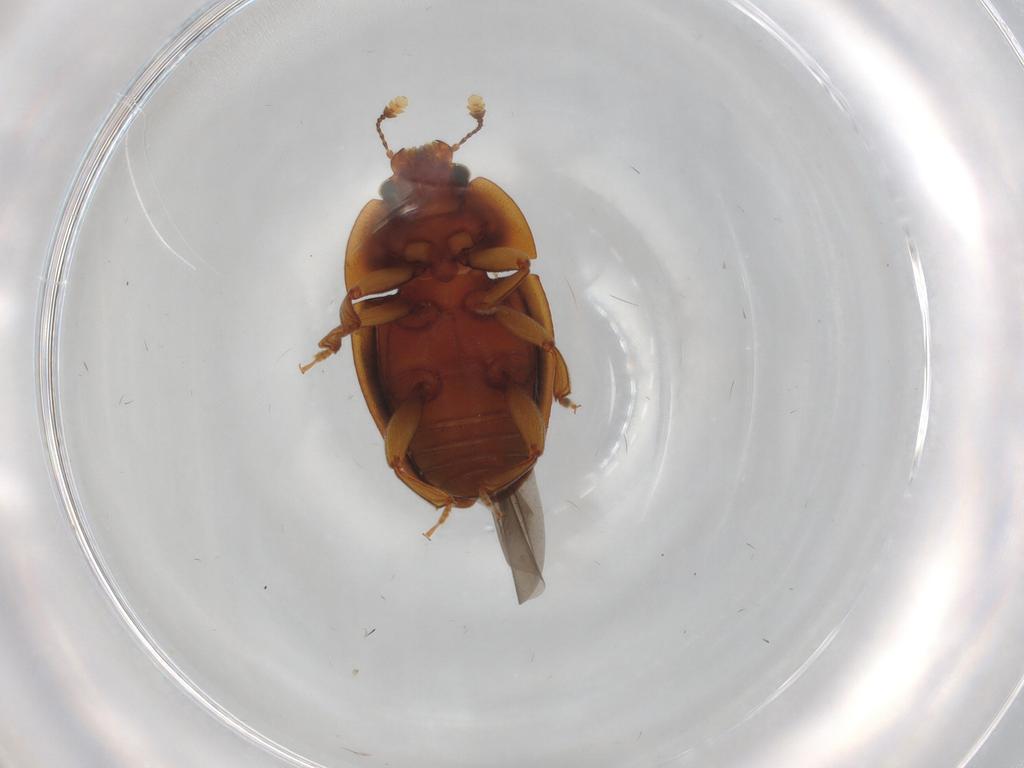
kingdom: Animalia
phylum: Arthropoda
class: Insecta
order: Coleoptera
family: Nitidulidae
